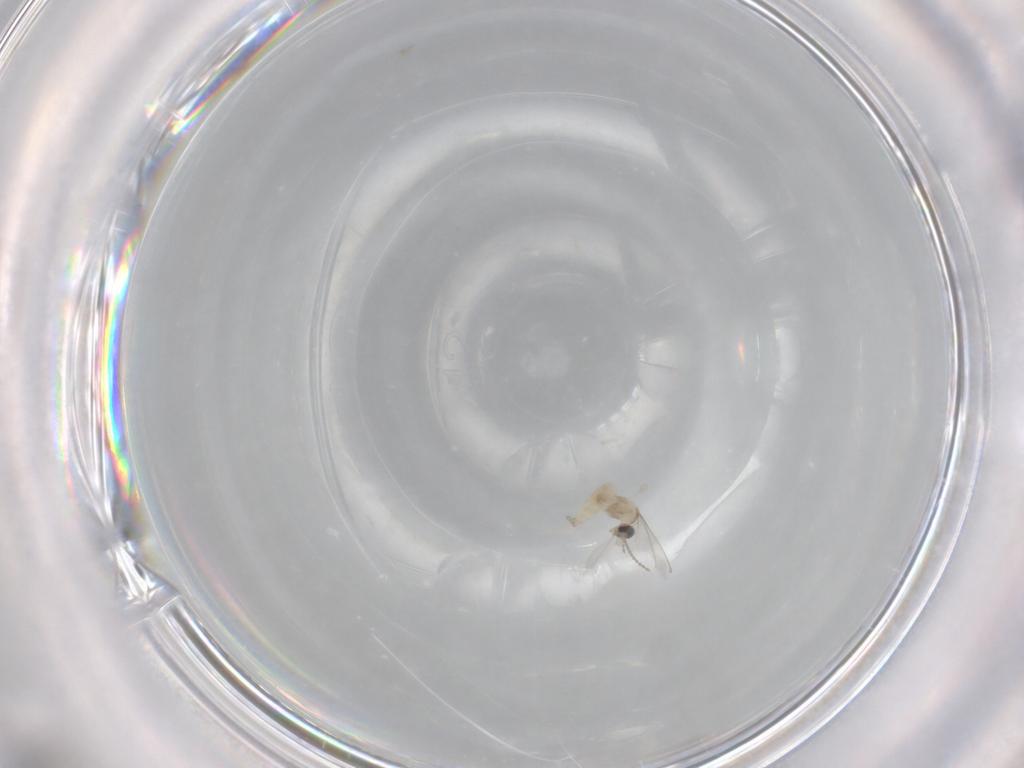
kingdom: Animalia
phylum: Arthropoda
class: Insecta
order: Diptera
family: Cecidomyiidae
